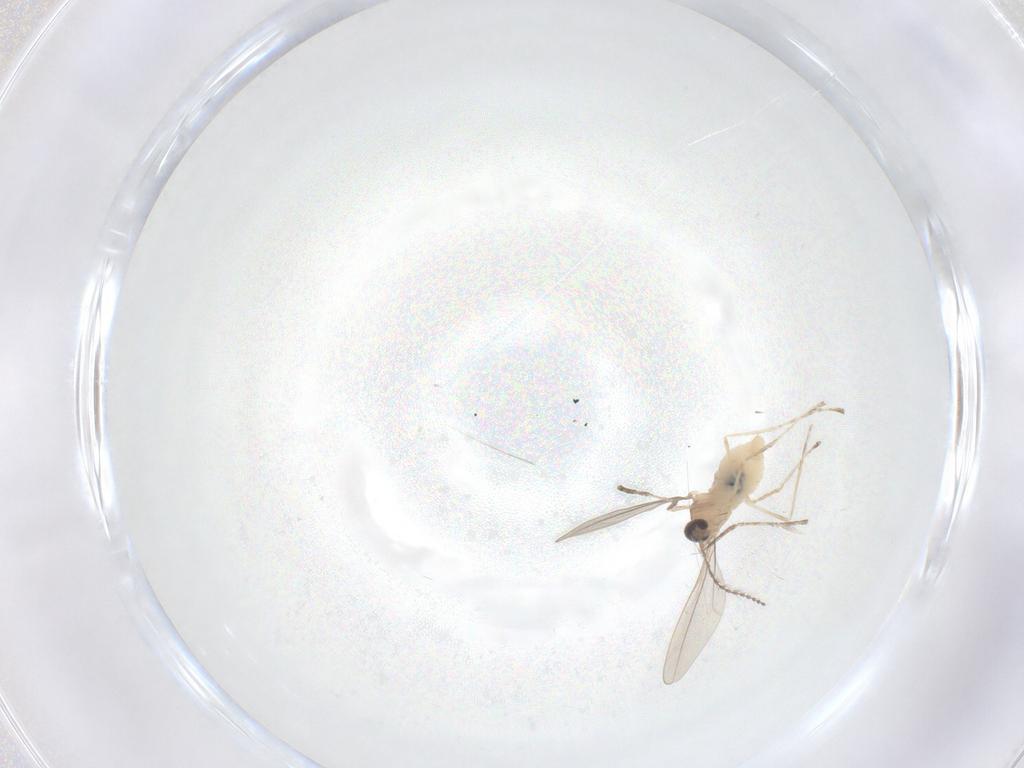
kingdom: Animalia
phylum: Arthropoda
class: Insecta
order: Diptera
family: Cecidomyiidae
